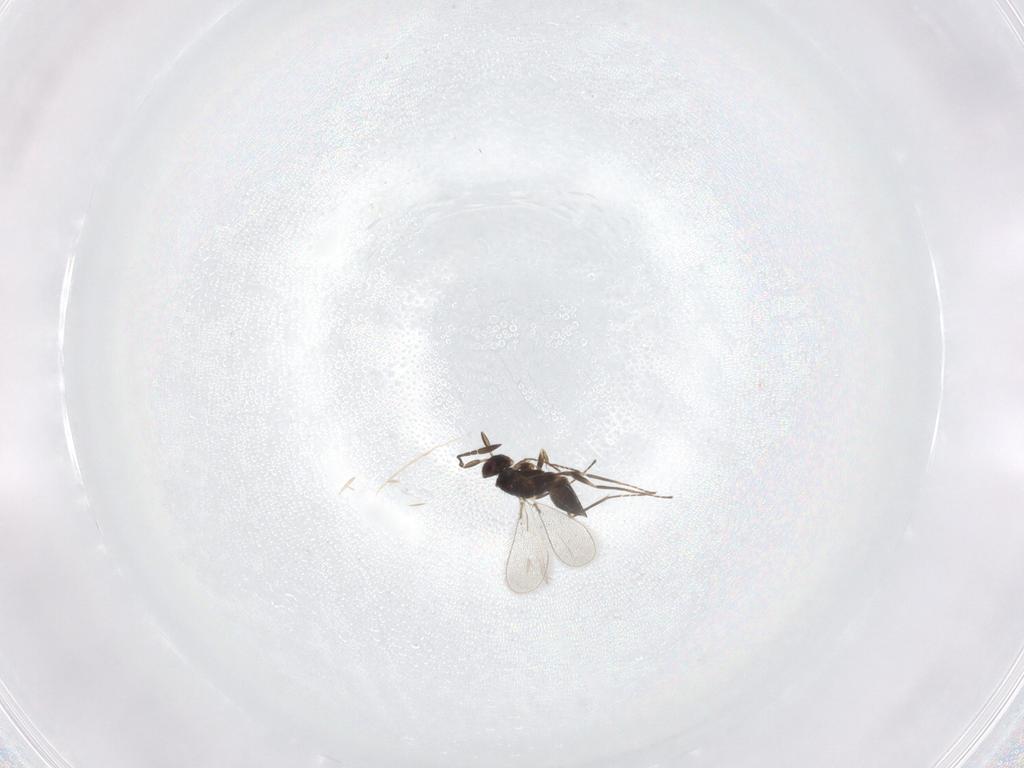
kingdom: Animalia
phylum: Arthropoda
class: Insecta
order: Hymenoptera
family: Mymaridae
